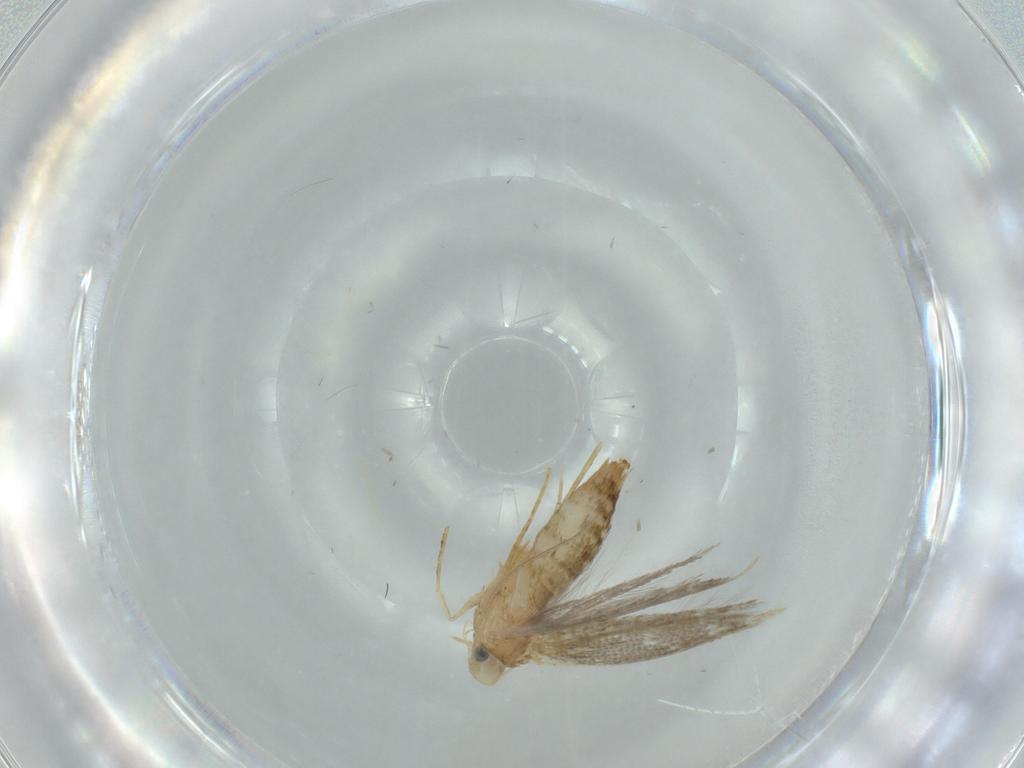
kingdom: Animalia
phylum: Arthropoda
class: Insecta
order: Lepidoptera
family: Tischeriidae
